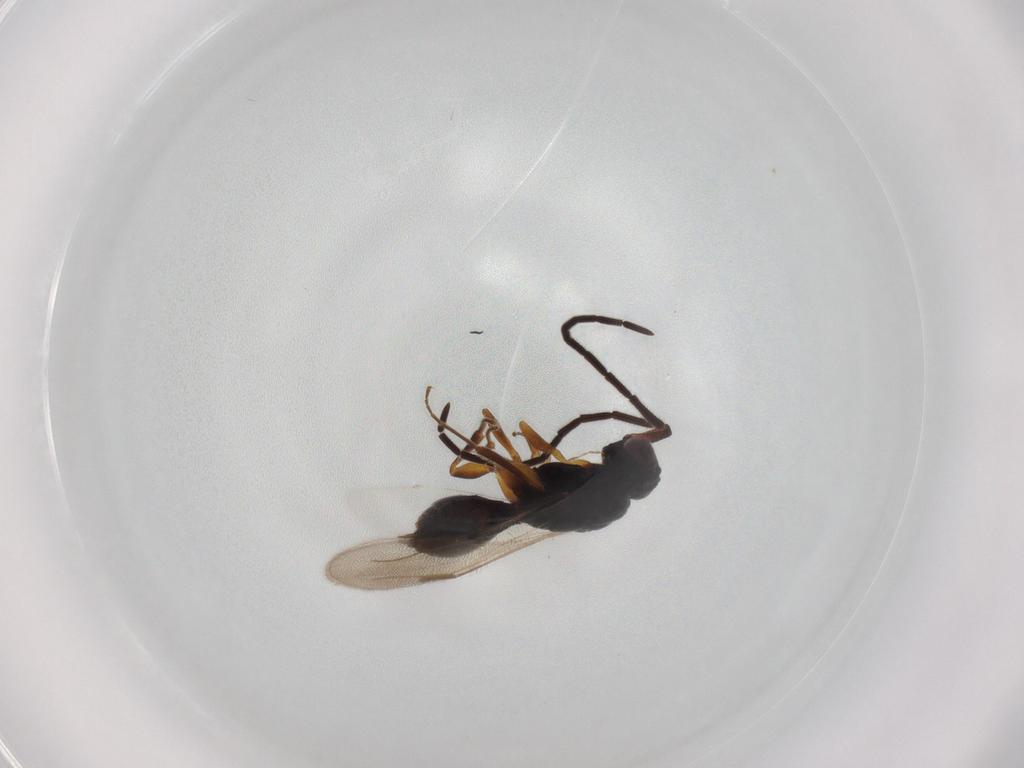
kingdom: Animalia
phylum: Arthropoda
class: Insecta
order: Hymenoptera
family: Megaspilidae
